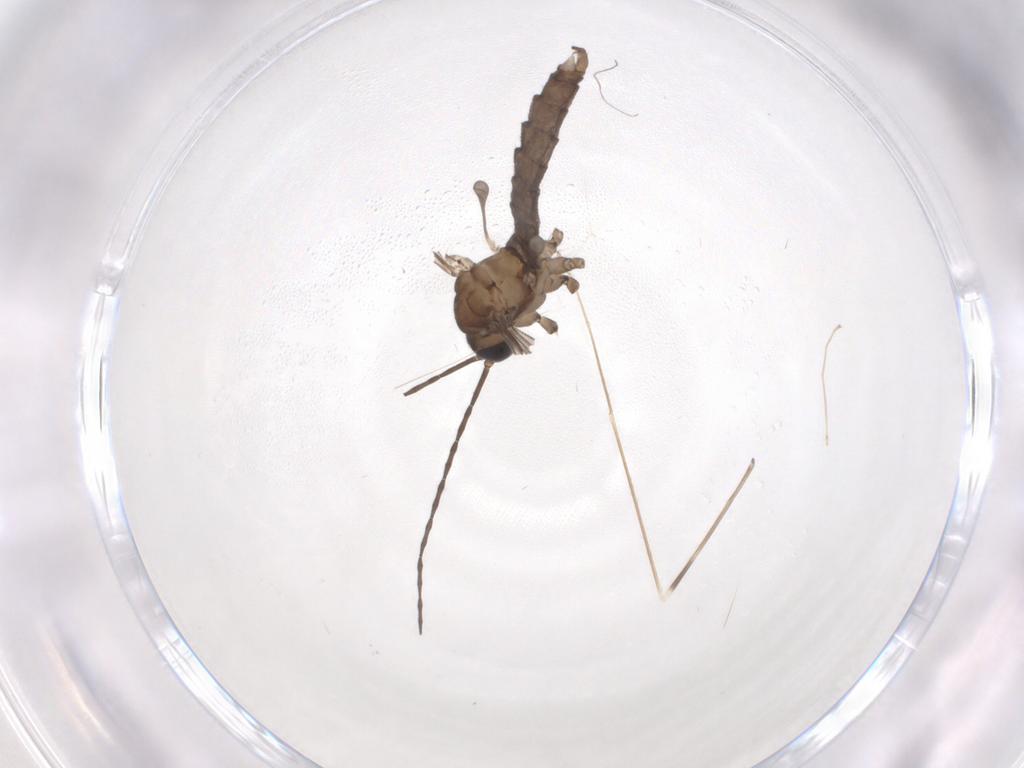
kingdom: Animalia
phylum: Arthropoda
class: Insecta
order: Diptera
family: Limoniidae
